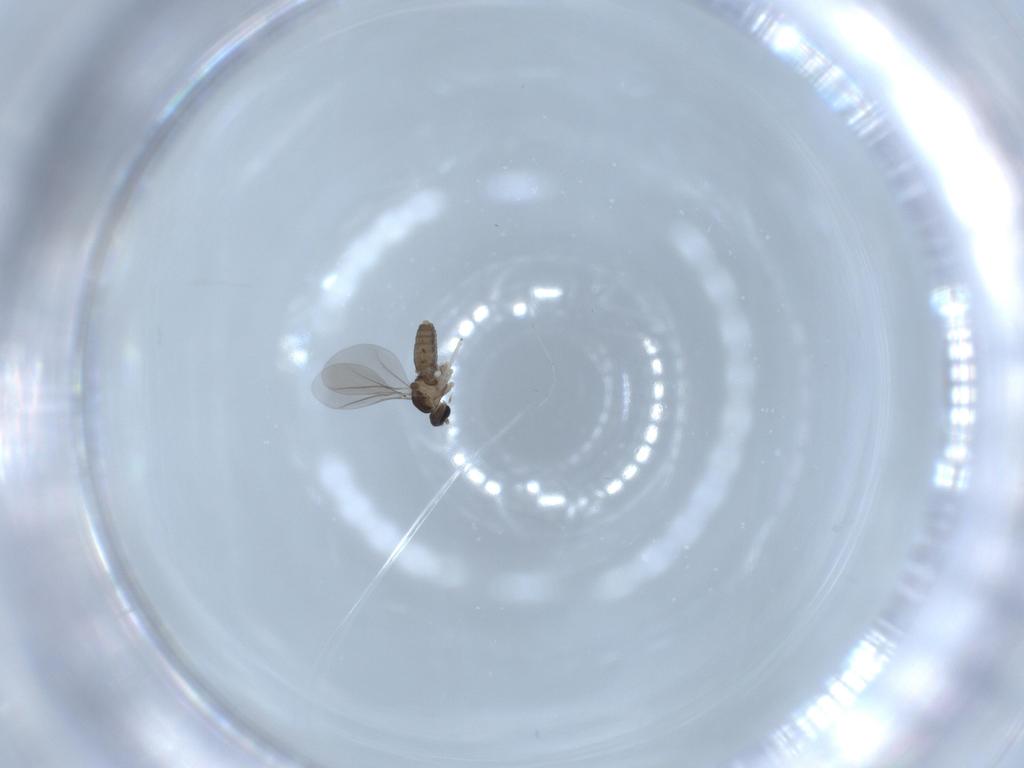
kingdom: Animalia
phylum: Arthropoda
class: Insecta
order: Diptera
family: Cecidomyiidae
